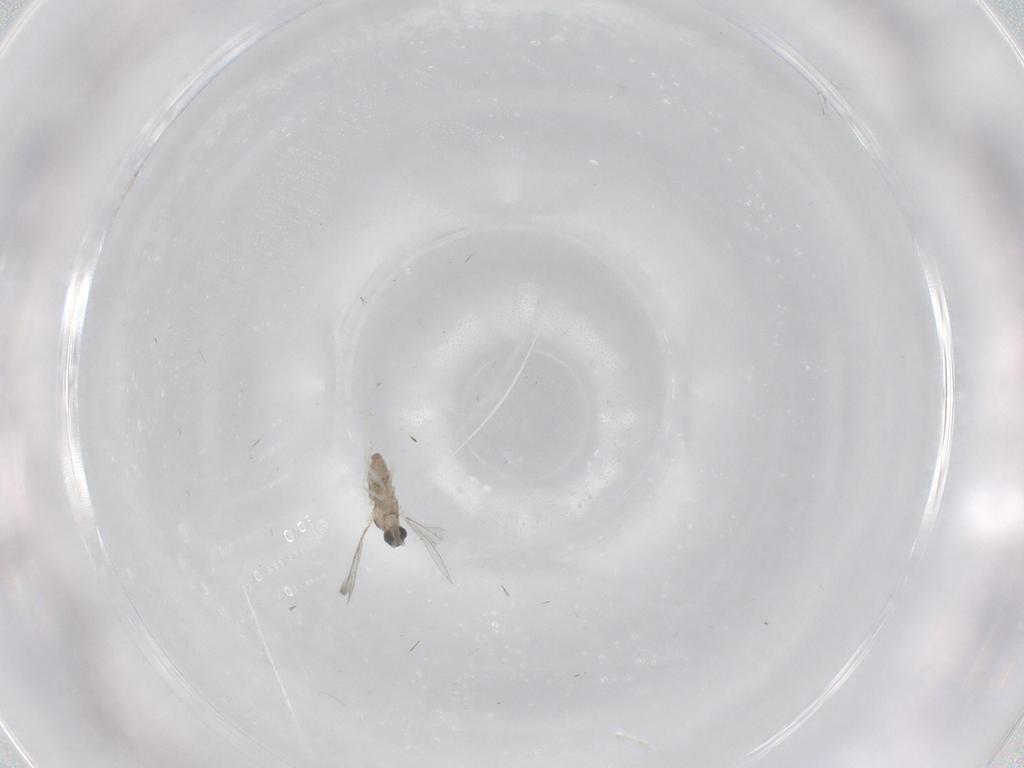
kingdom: Animalia
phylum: Arthropoda
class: Insecta
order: Diptera
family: Cecidomyiidae
